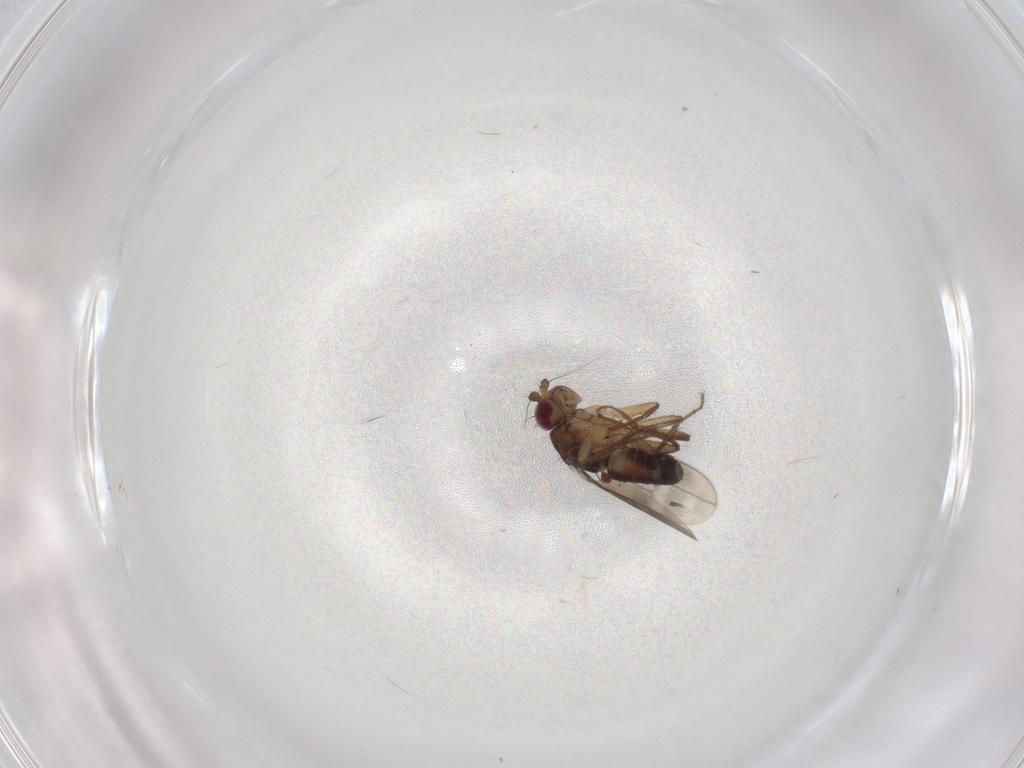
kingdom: Animalia
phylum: Arthropoda
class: Insecta
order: Diptera
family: Sphaeroceridae
